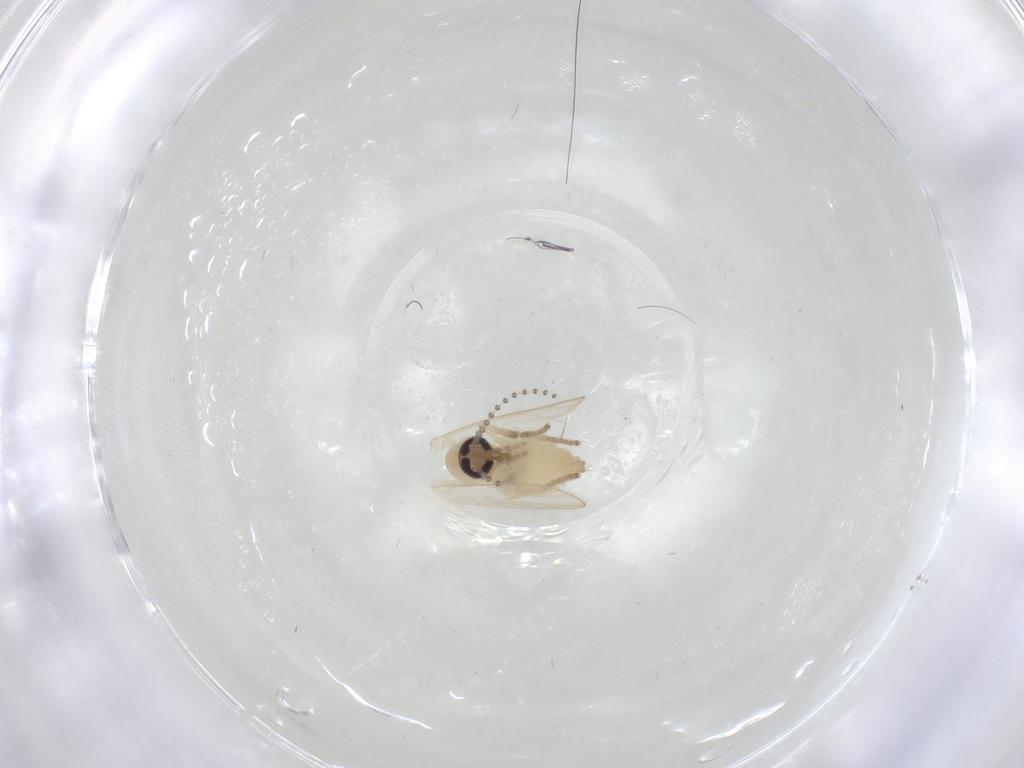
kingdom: Animalia
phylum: Arthropoda
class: Insecta
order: Diptera
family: Psychodidae
